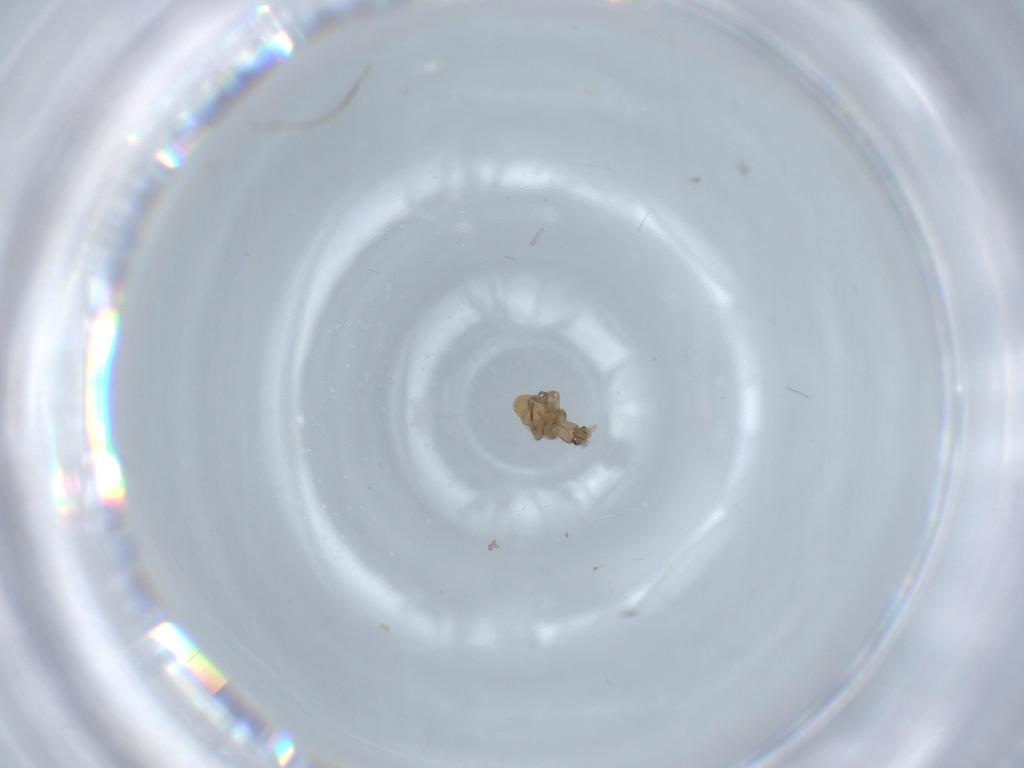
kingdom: Animalia
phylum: Arthropoda
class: Insecta
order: Diptera
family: Phoridae
